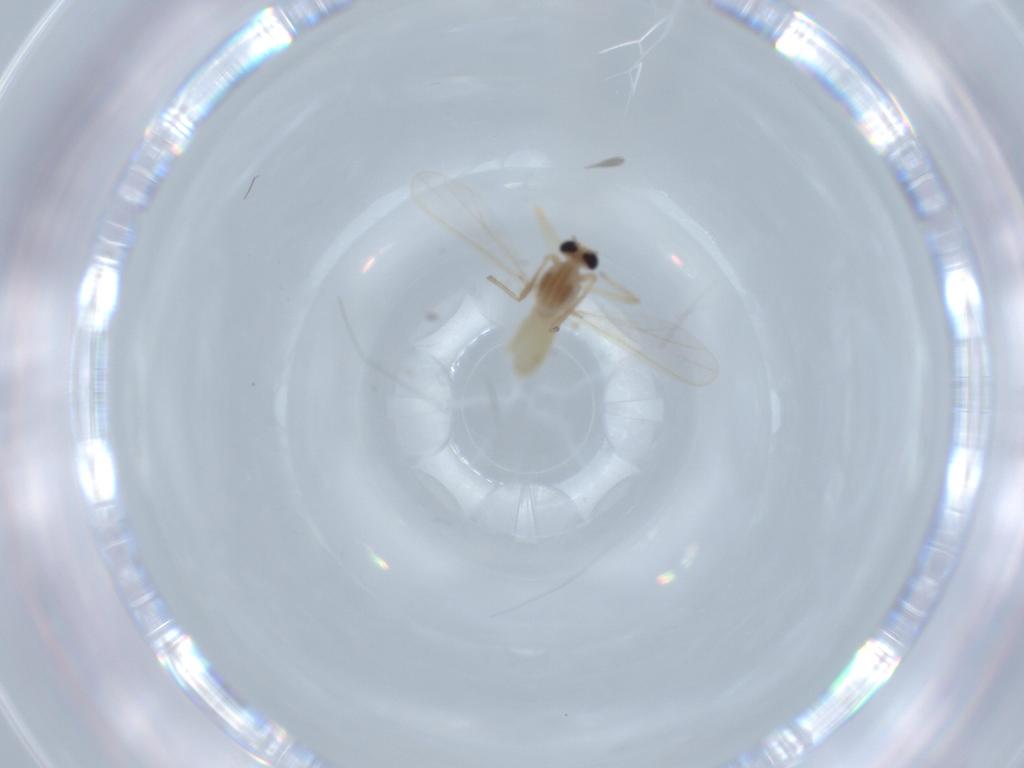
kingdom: Animalia
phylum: Arthropoda
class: Insecta
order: Diptera
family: Chironomidae
